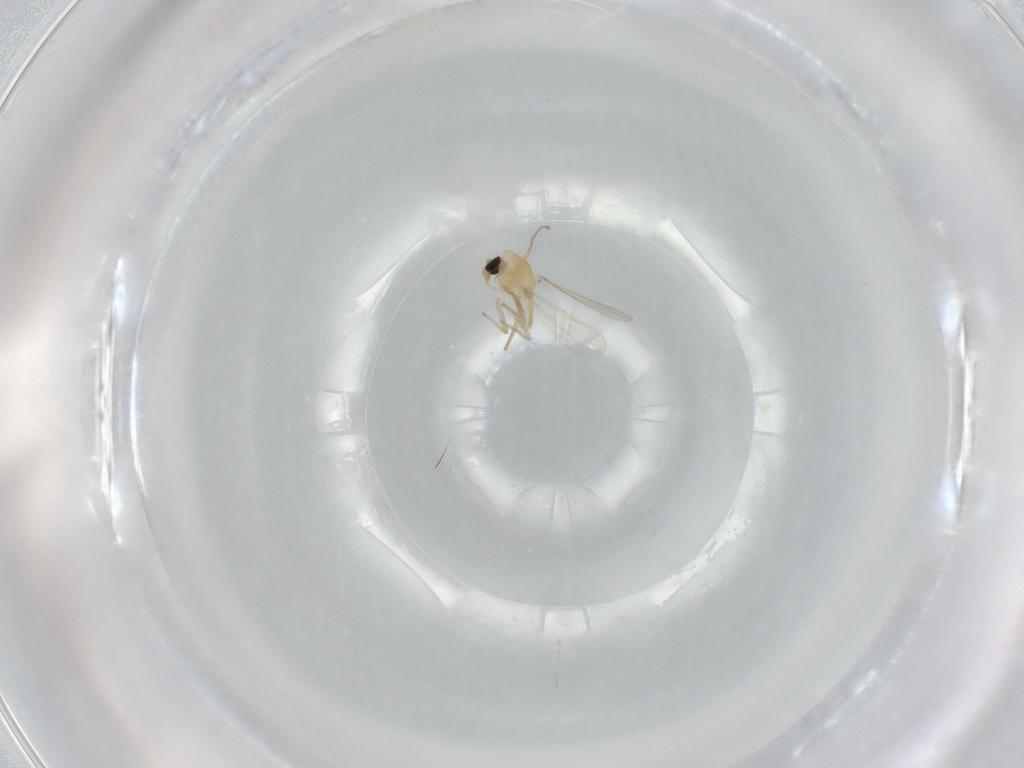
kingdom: Animalia
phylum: Arthropoda
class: Insecta
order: Diptera
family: Chironomidae
